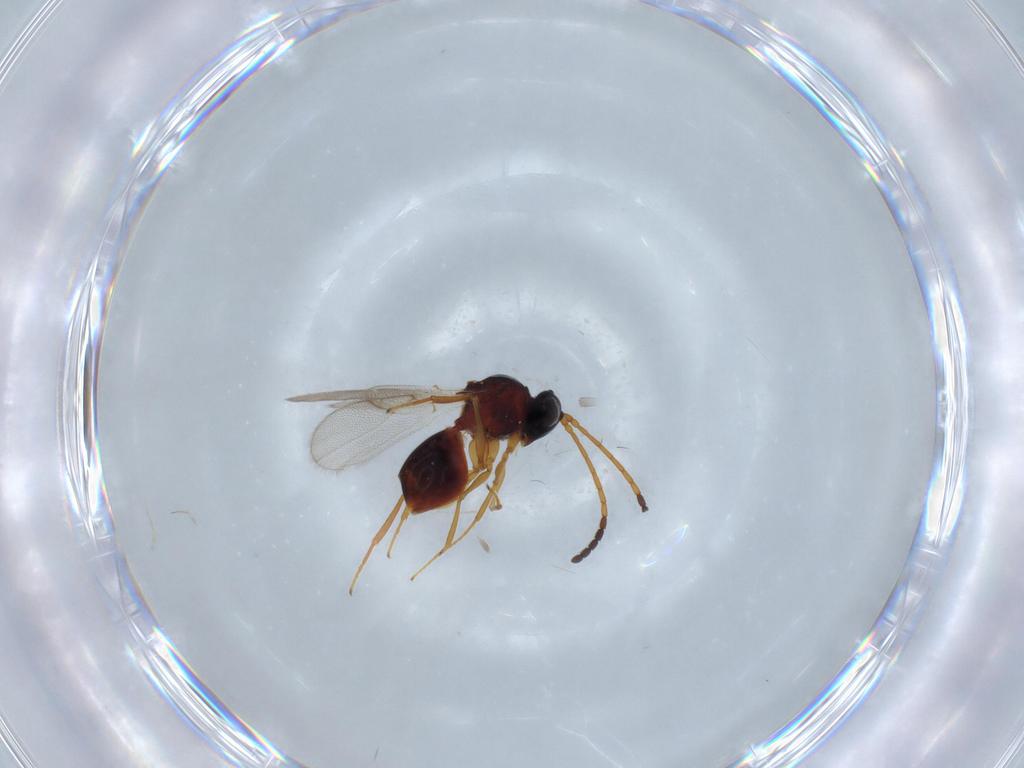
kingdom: Animalia
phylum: Arthropoda
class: Insecta
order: Hymenoptera
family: Figitidae
